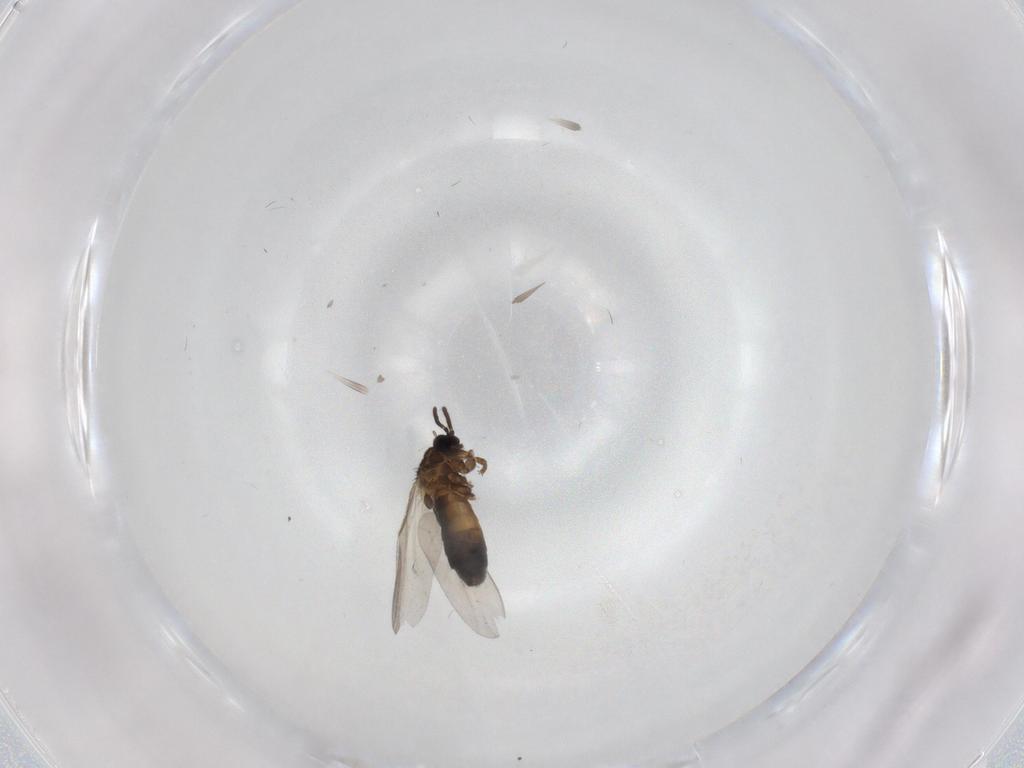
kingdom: Animalia
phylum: Arthropoda
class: Insecta
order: Diptera
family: Scatopsidae
